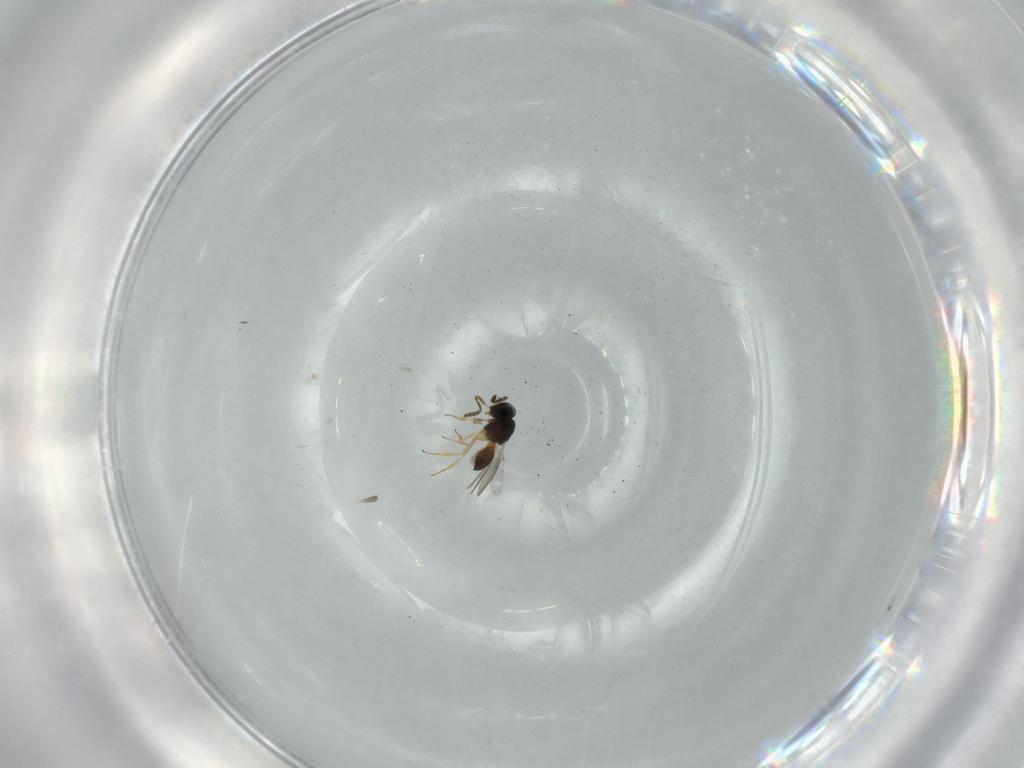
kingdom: Animalia
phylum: Arthropoda
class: Insecta
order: Hymenoptera
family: Scelionidae
